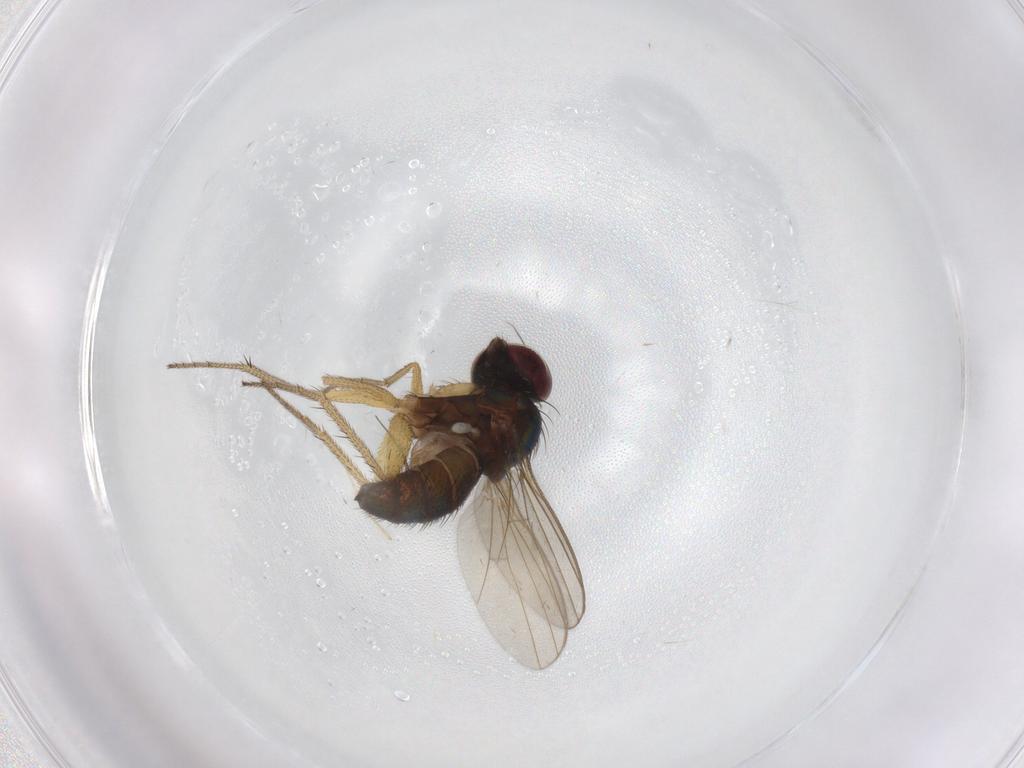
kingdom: Animalia
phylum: Arthropoda
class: Insecta
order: Diptera
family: Dolichopodidae
